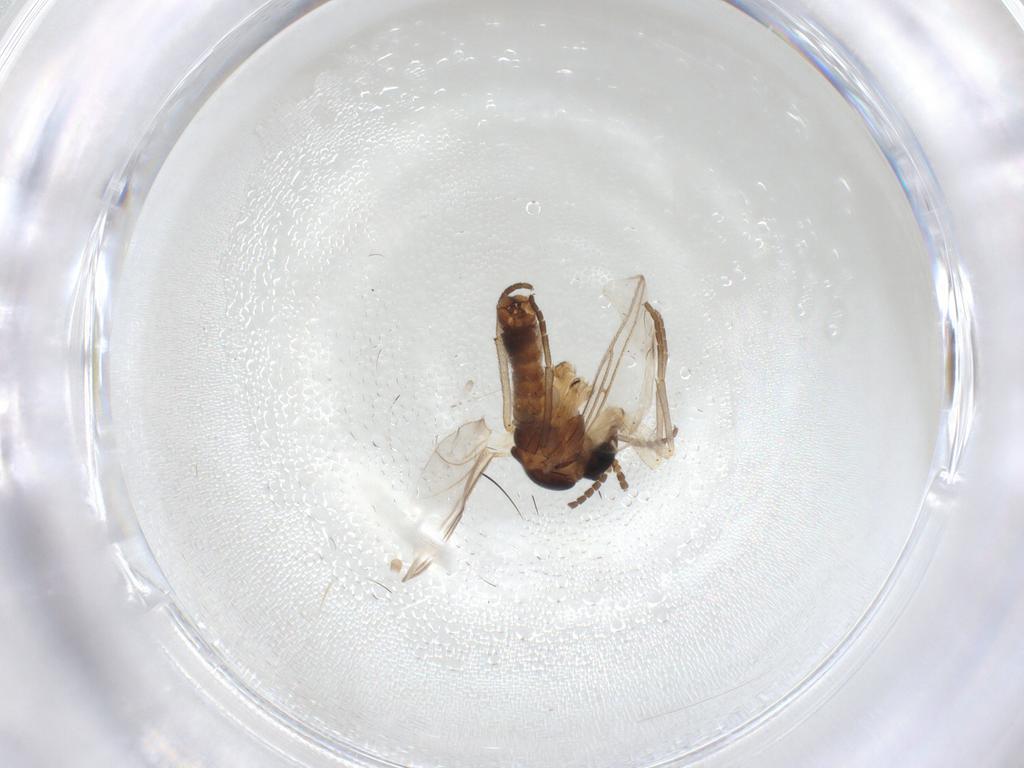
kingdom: Animalia
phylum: Arthropoda
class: Insecta
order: Diptera
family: Sciaridae
